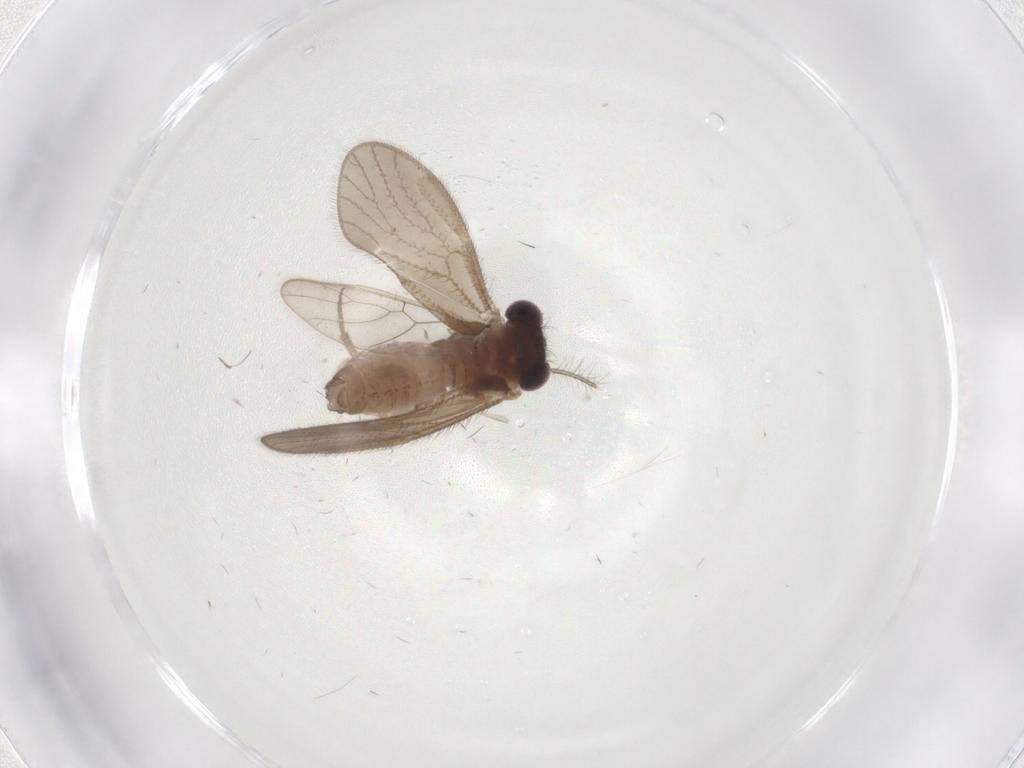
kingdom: Animalia
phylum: Arthropoda
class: Insecta
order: Psocodea
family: Caeciliusidae
